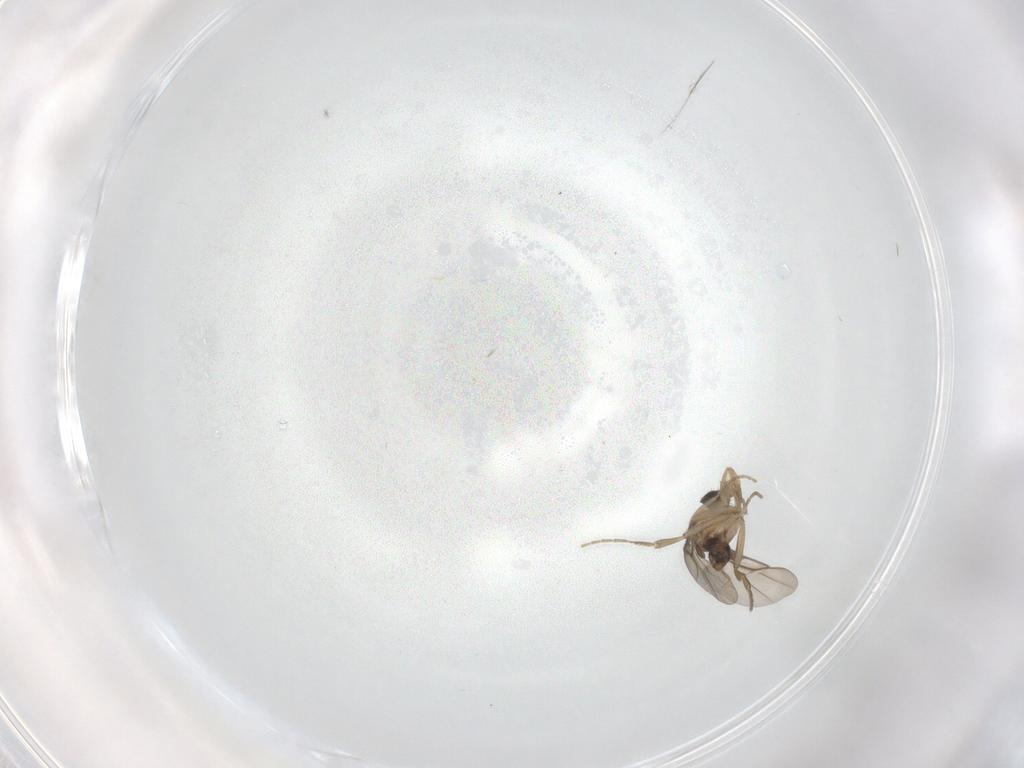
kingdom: Animalia
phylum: Arthropoda
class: Insecta
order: Diptera
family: Phoridae
